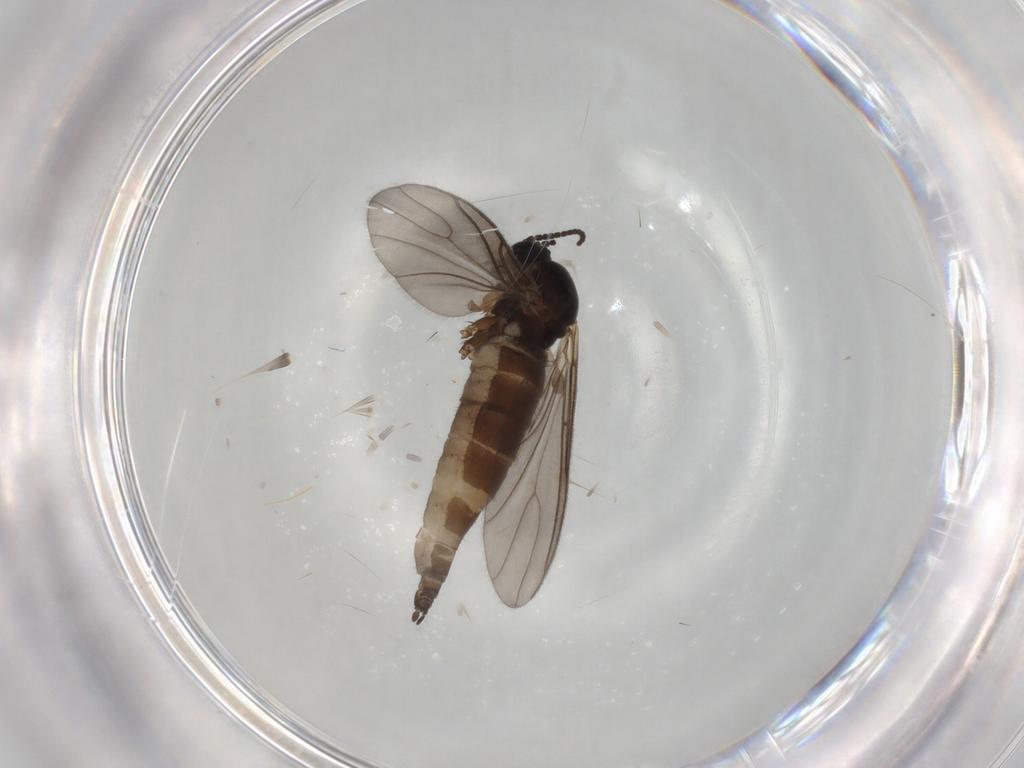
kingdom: Animalia
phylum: Arthropoda
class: Insecta
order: Diptera
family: Sciaridae
